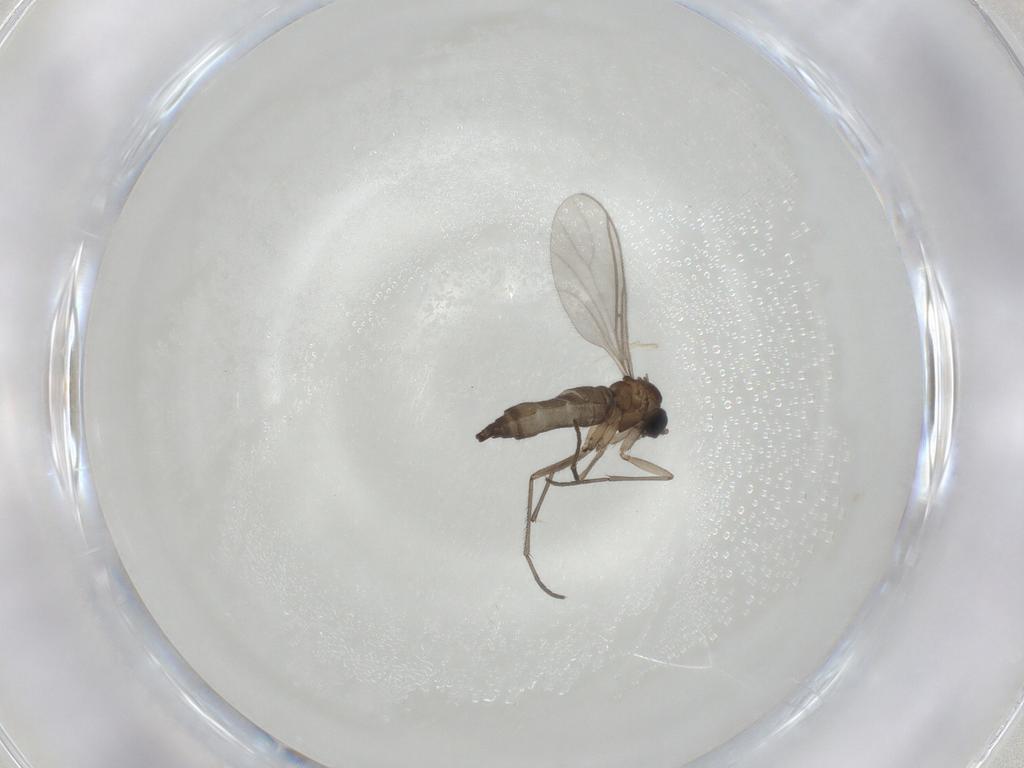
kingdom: Animalia
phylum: Arthropoda
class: Insecta
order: Diptera
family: Sciaridae
